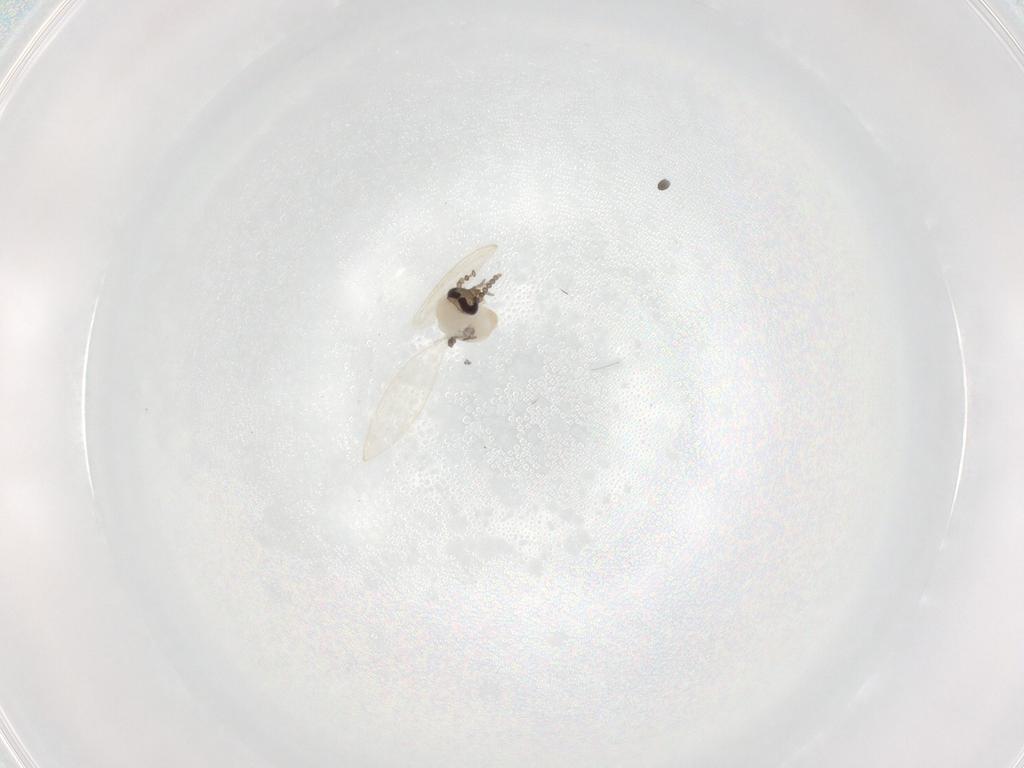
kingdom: Animalia
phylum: Arthropoda
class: Insecta
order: Diptera
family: Psychodidae
